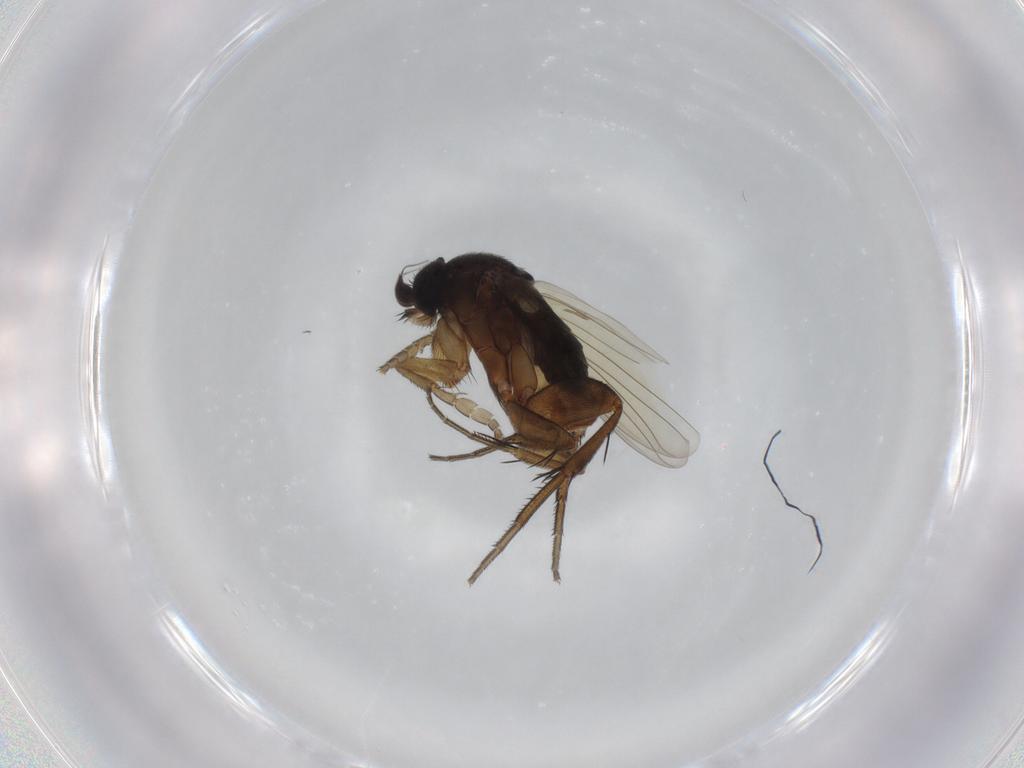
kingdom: Animalia
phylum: Arthropoda
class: Insecta
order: Diptera
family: Phoridae
